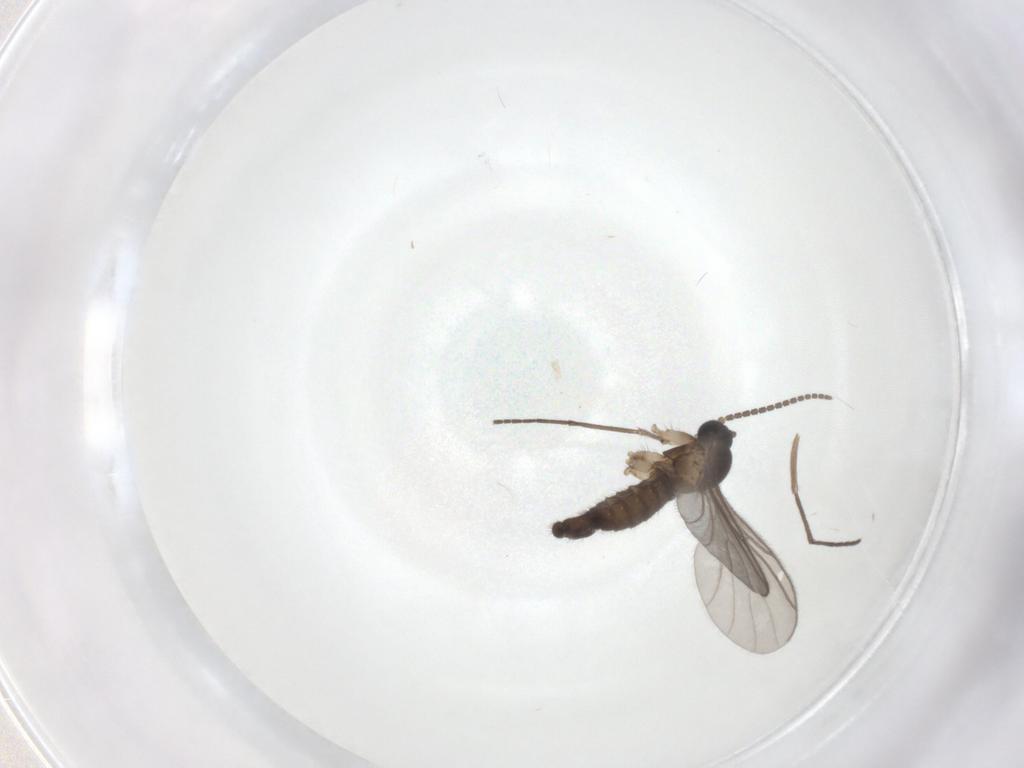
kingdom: Animalia
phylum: Arthropoda
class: Insecta
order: Diptera
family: Sciaridae
